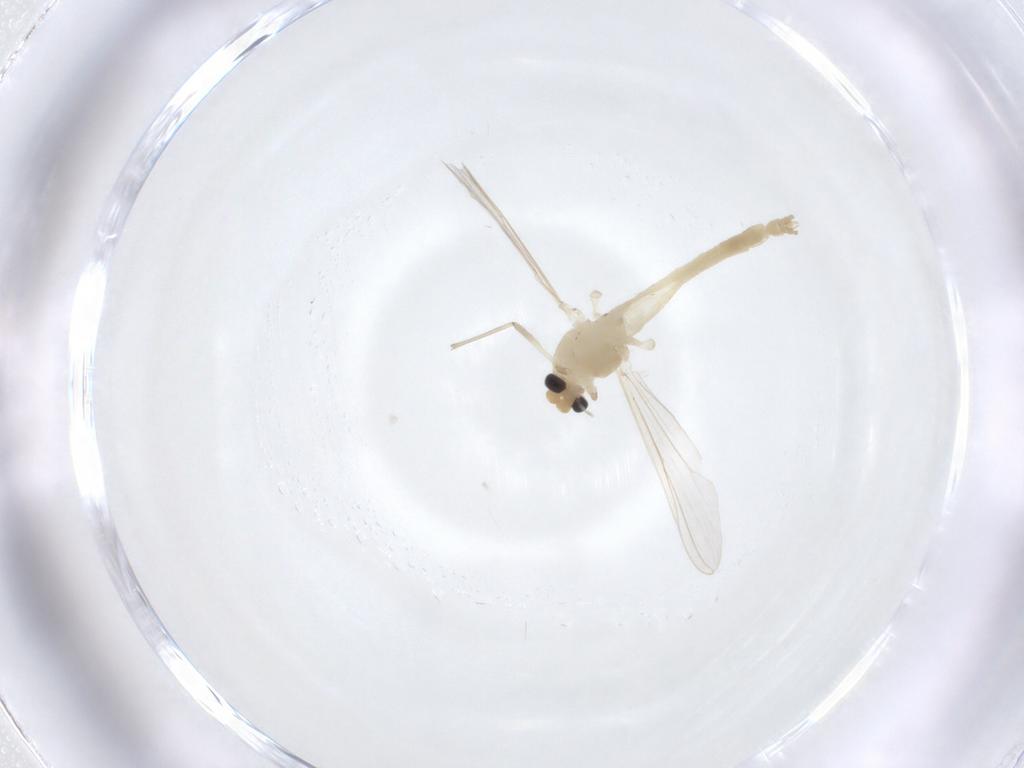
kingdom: Animalia
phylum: Arthropoda
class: Insecta
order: Diptera
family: Chironomidae
